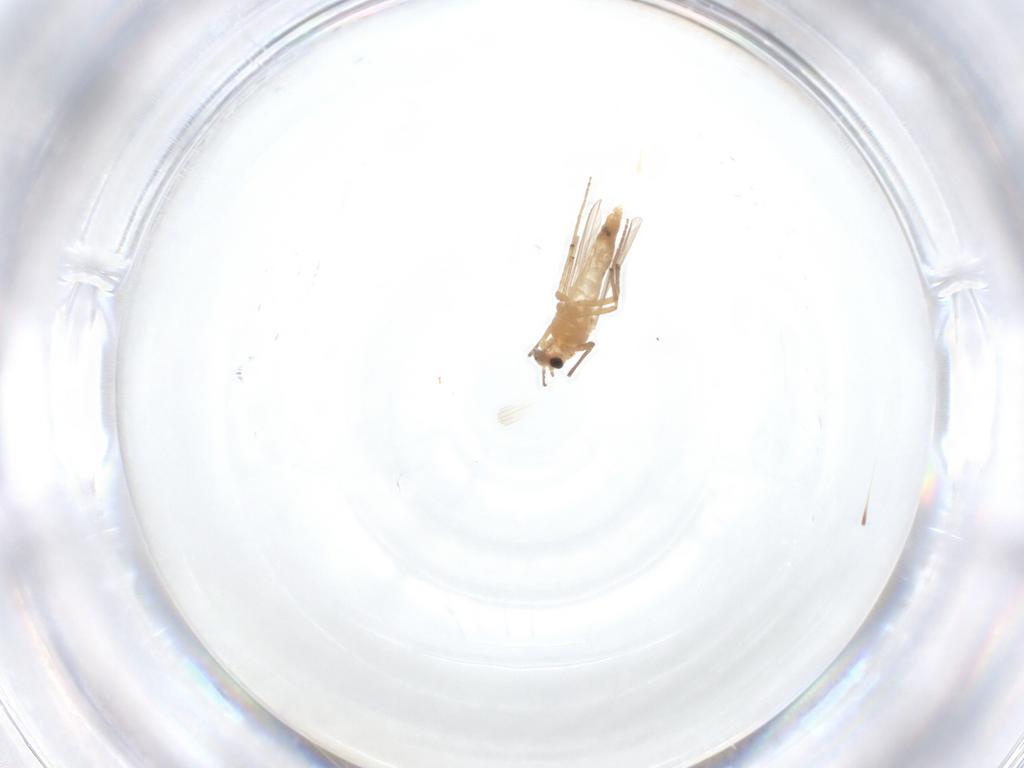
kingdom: Animalia
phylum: Arthropoda
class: Insecta
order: Diptera
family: Chironomidae
